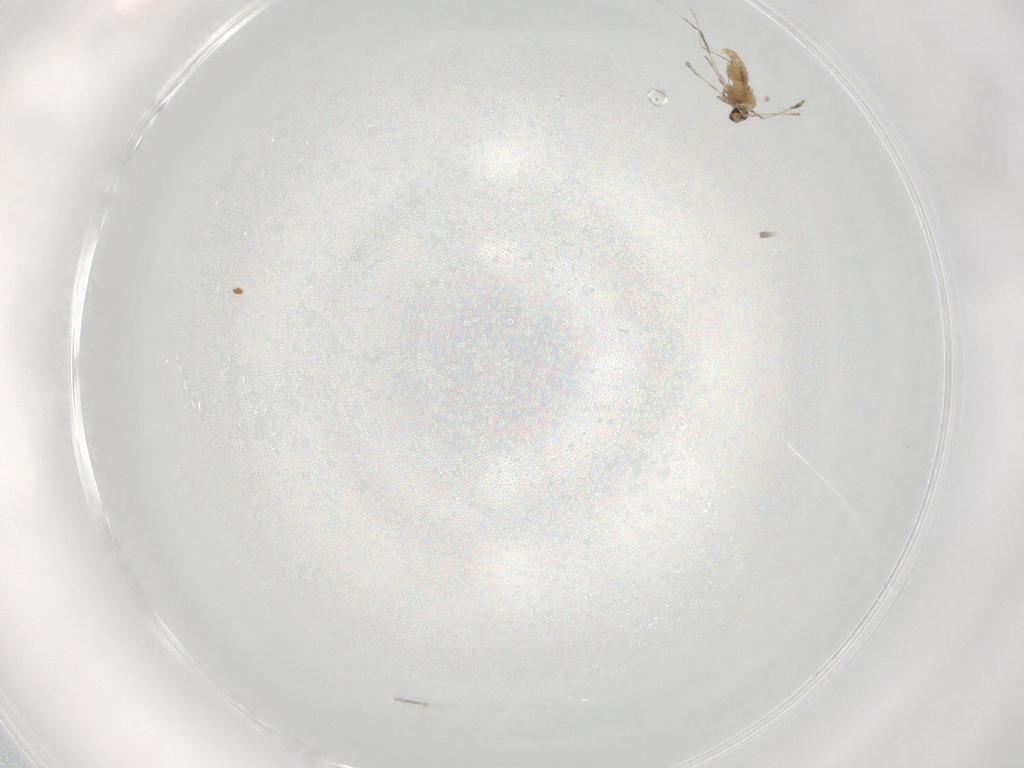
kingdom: Animalia
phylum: Arthropoda
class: Insecta
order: Diptera
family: Cecidomyiidae
